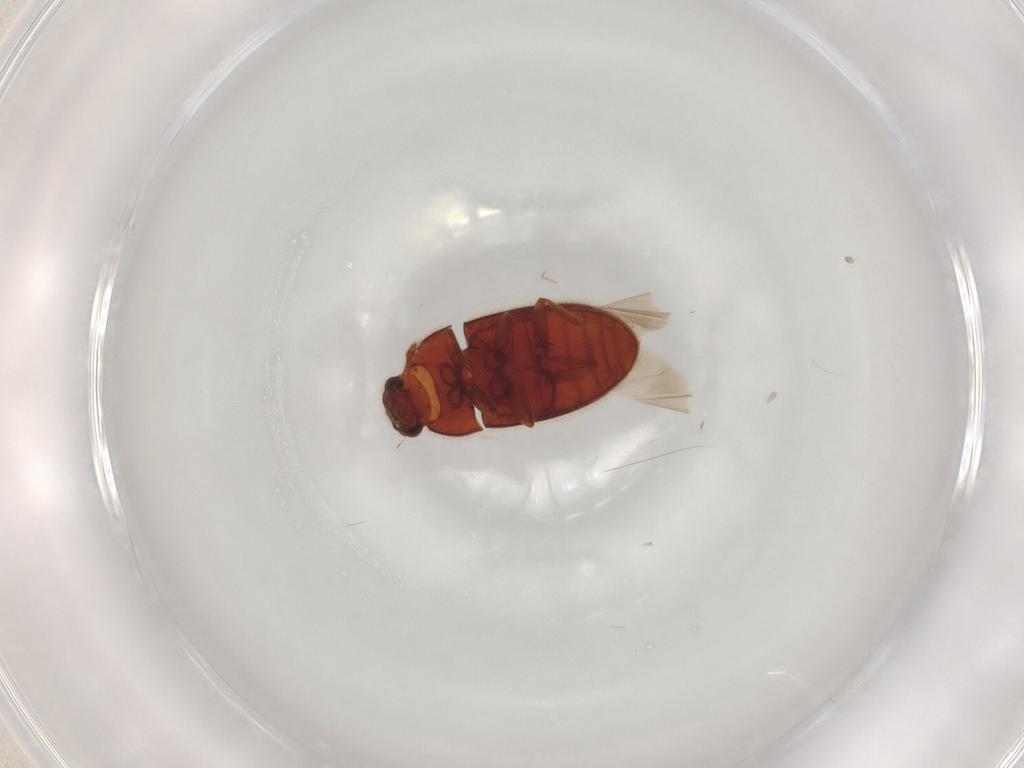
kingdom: Animalia
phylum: Arthropoda
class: Insecta
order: Coleoptera
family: Biphyllidae
